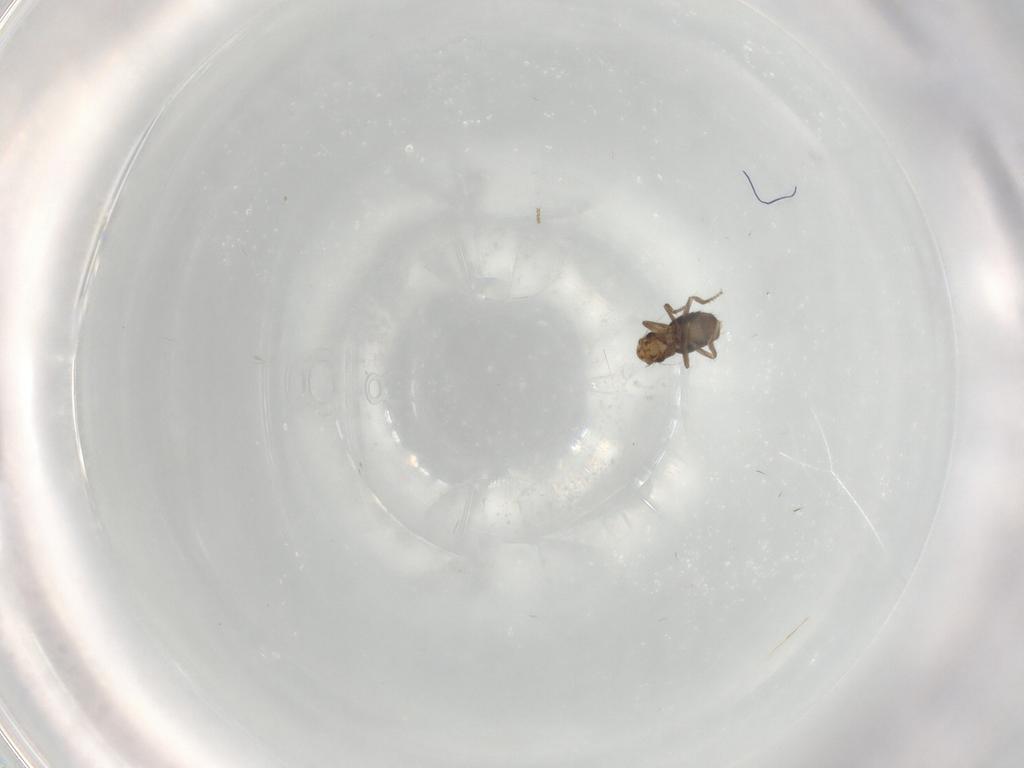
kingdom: Animalia
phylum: Arthropoda
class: Insecta
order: Diptera
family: Phoridae
